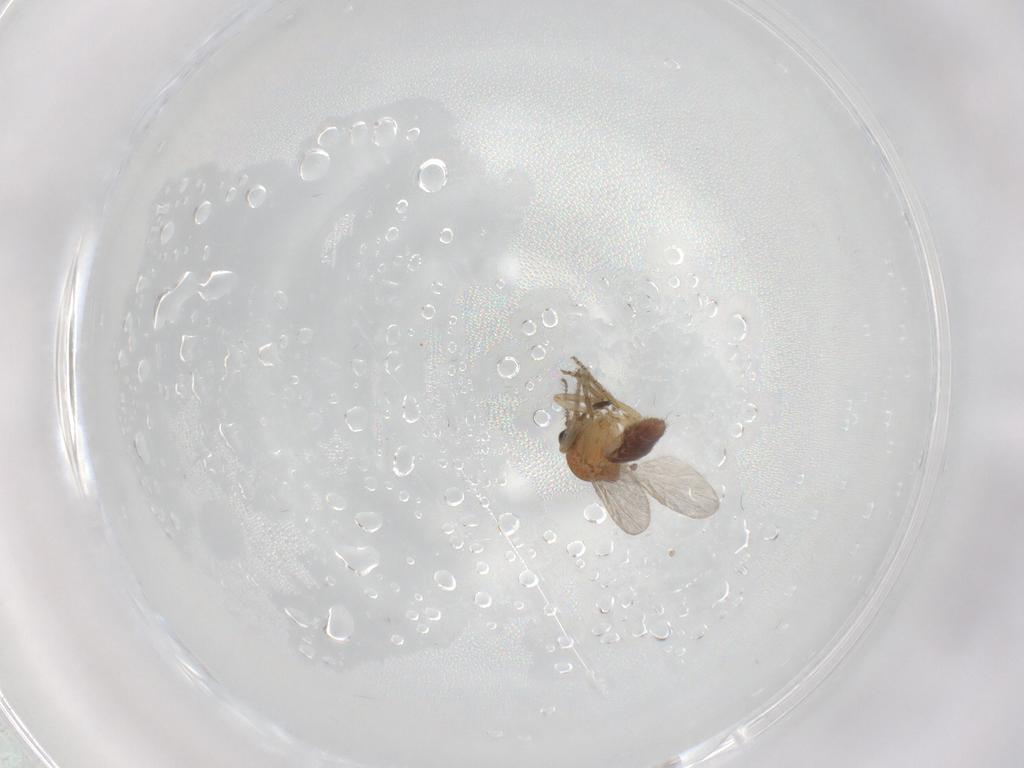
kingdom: Animalia
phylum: Arthropoda
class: Insecta
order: Diptera
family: Ceratopogonidae
